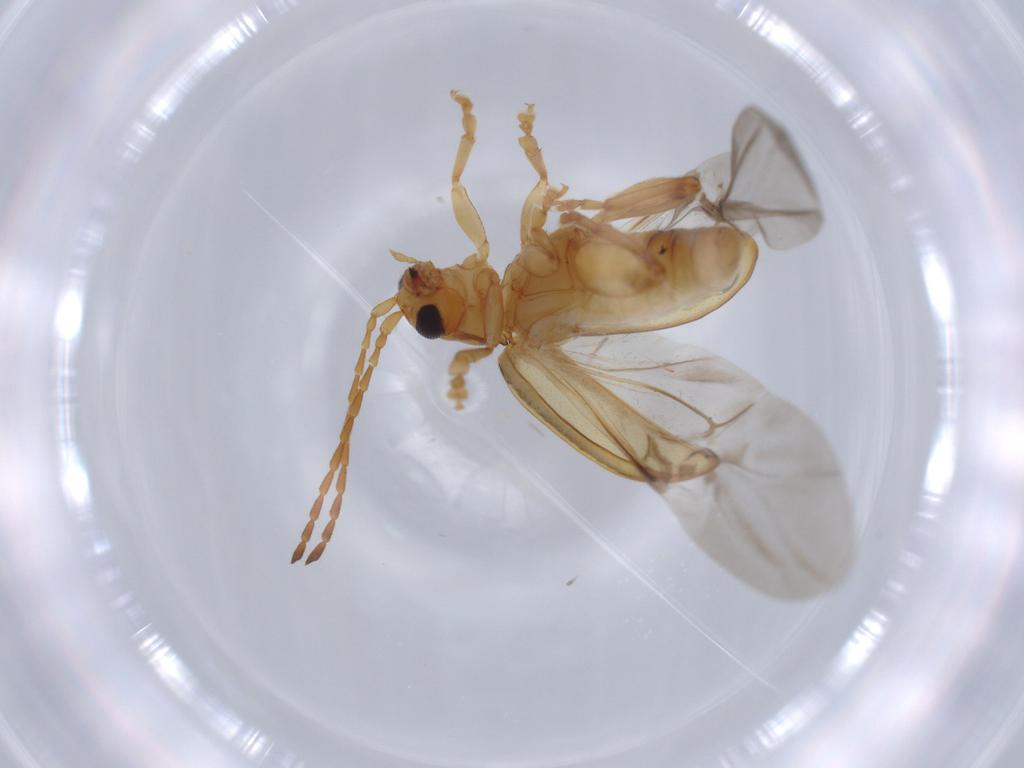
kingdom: Animalia
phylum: Arthropoda
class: Insecta
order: Coleoptera
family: Coccinellidae
